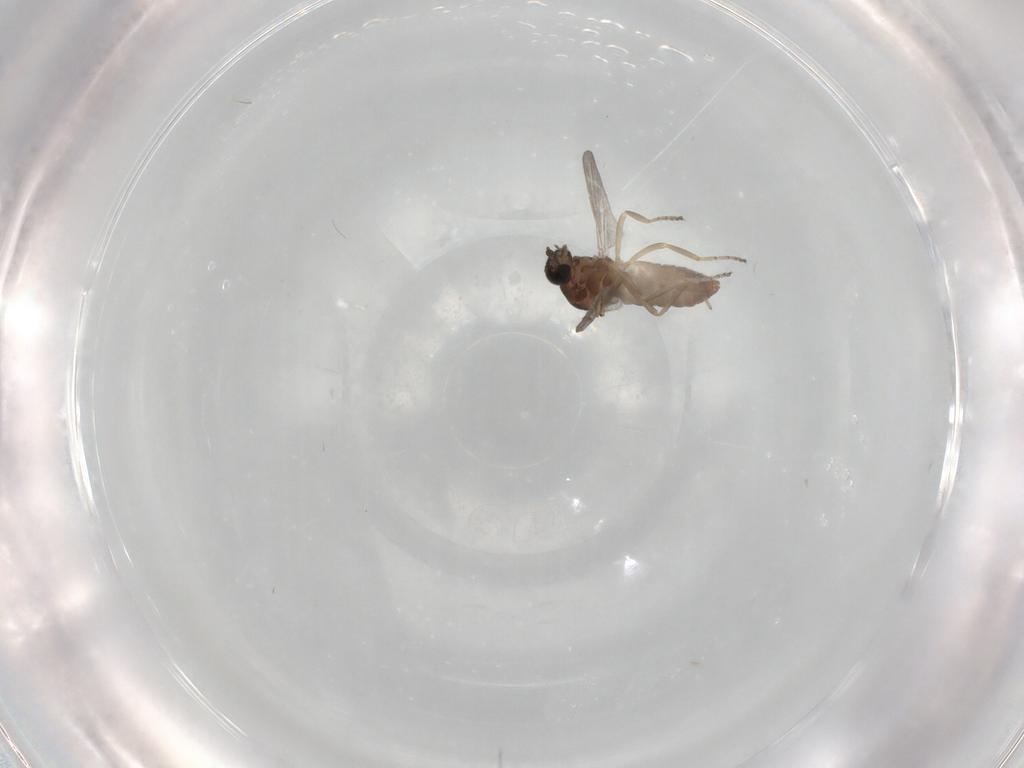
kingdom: Animalia
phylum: Arthropoda
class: Insecta
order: Diptera
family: Ceratopogonidae
